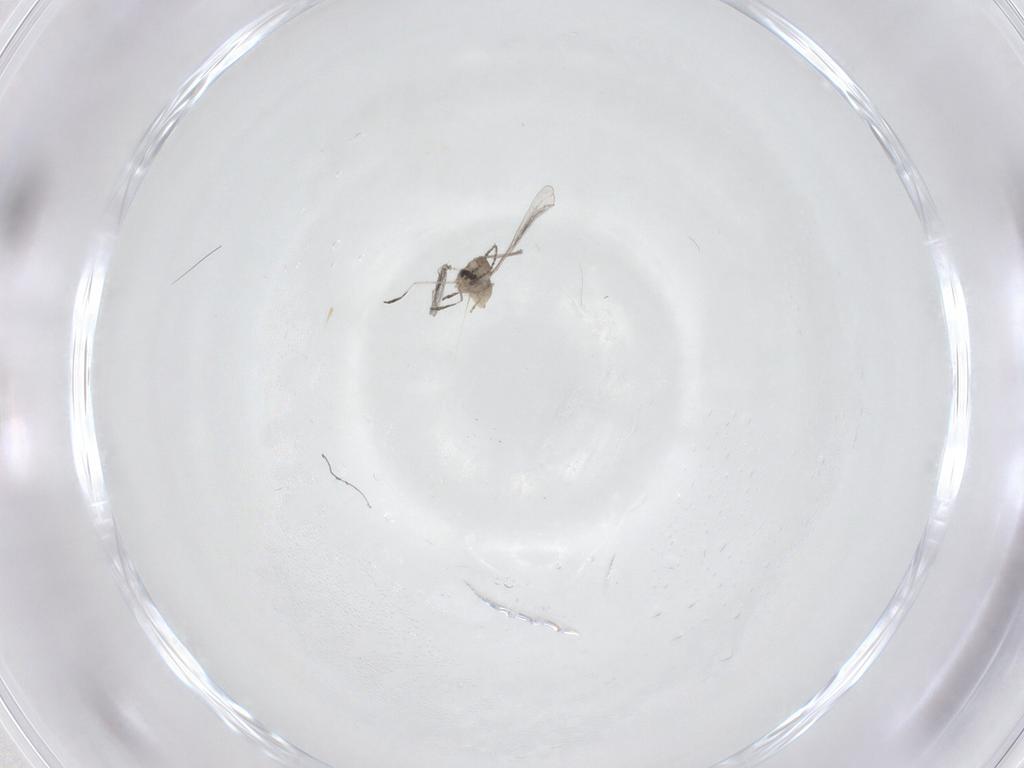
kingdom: Animalia
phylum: Arthropoda
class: Insecta
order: Diptera
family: Cecidomyiidae
